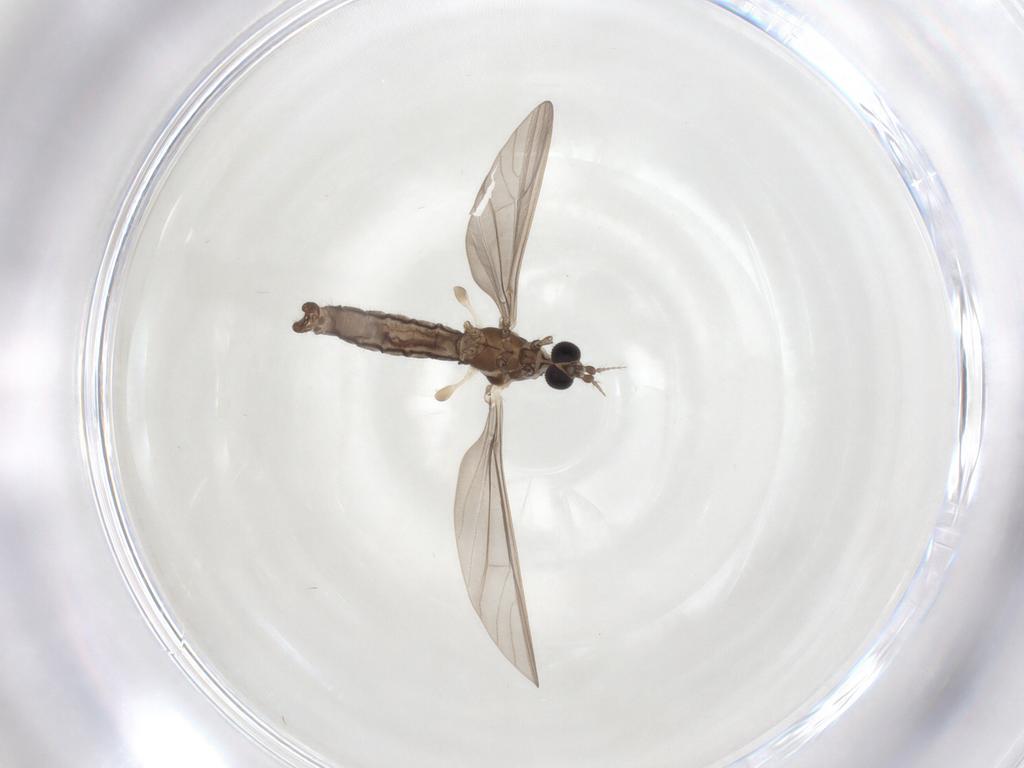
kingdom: Animalia
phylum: Arthropoda
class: Insecta
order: Diptera
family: Limoniidae
